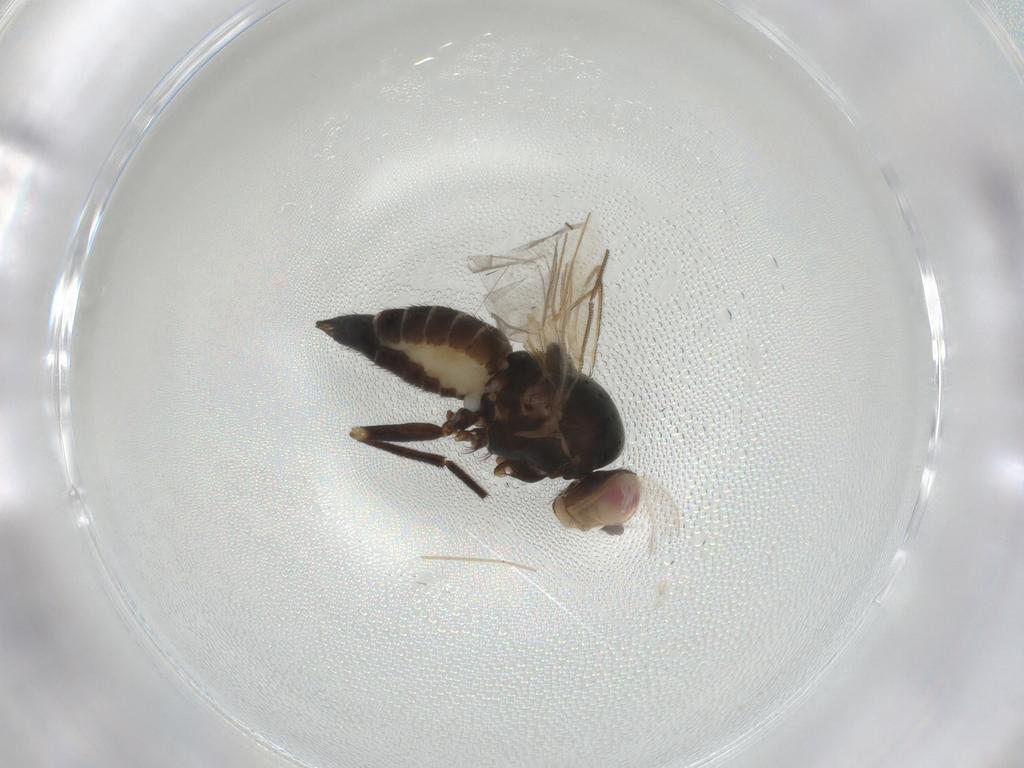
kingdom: Animalia
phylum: Arthropoda
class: Insecta
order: Diptera
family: Agromyzidae
